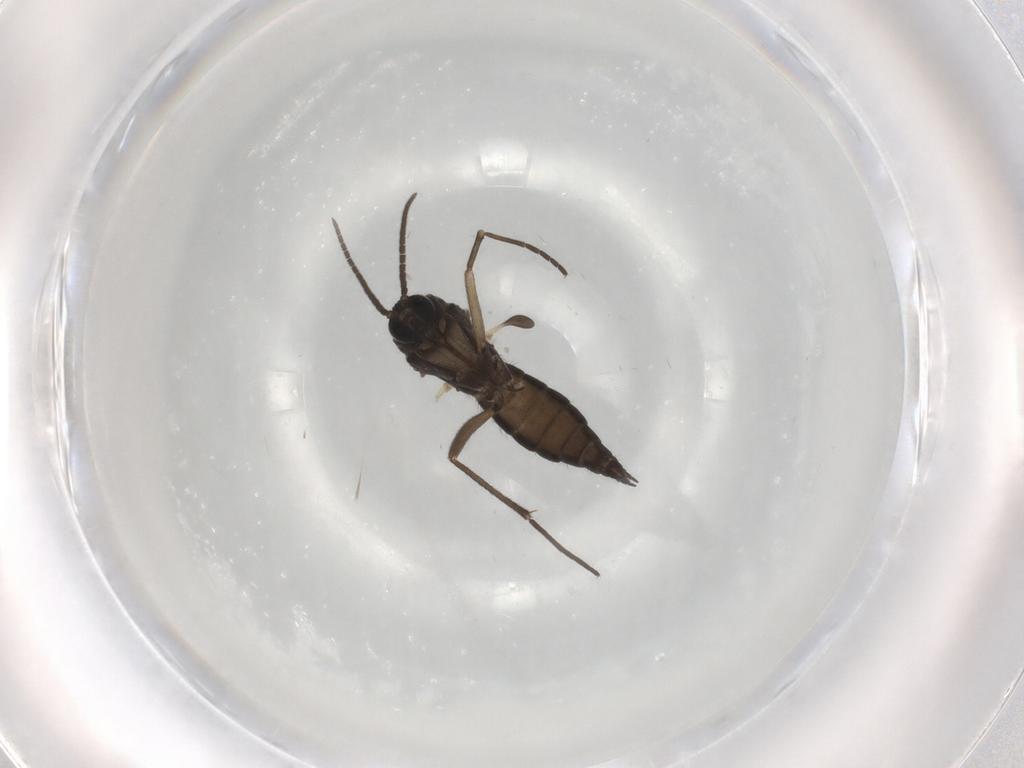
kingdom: Animalia
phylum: Arthropoda
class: Insecta
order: Diptera
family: Sciaridae
